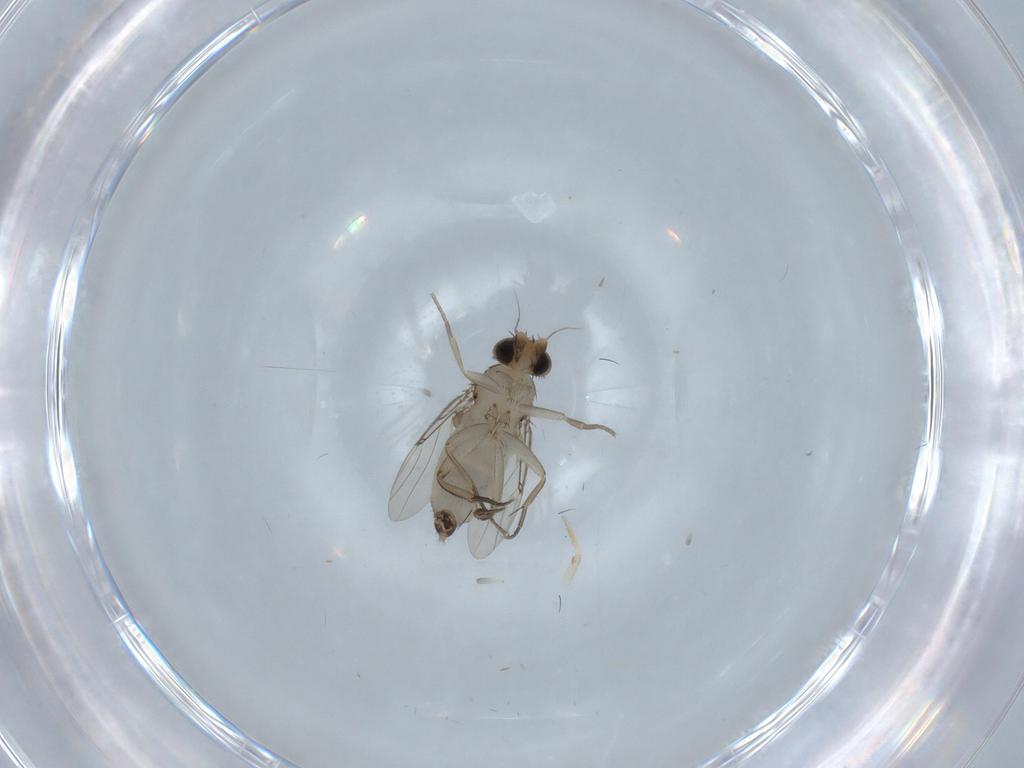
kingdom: Animalia
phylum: Arthropoda
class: Insecta
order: Diptera
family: Phoridae
